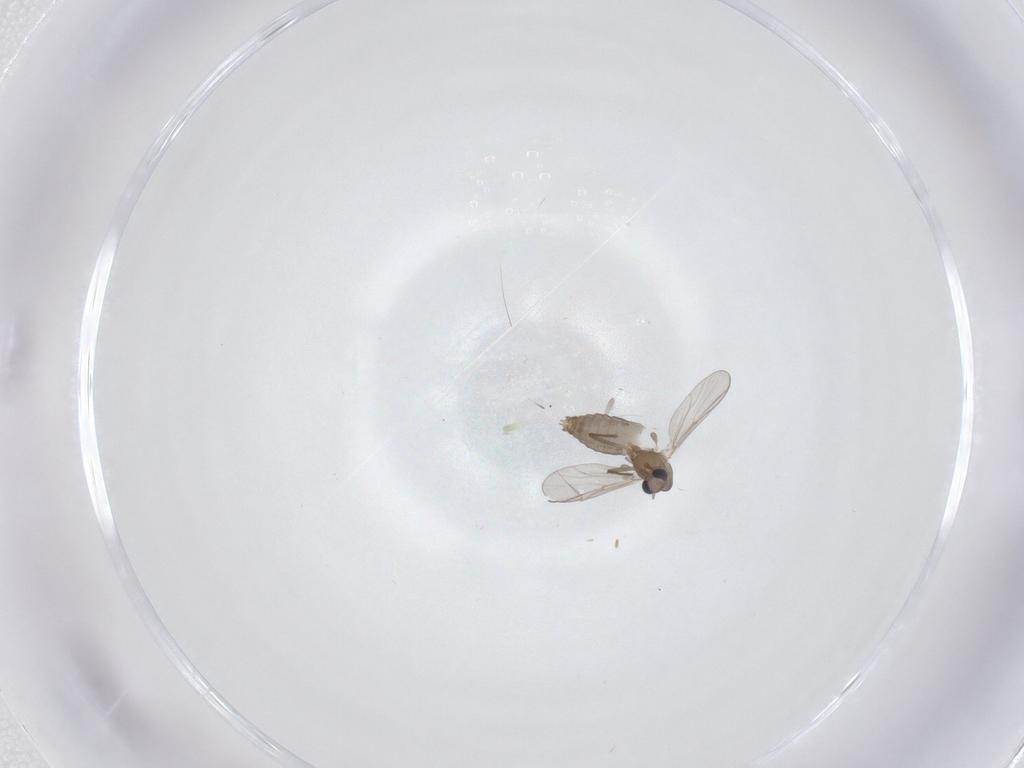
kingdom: Animalia
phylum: Arthropoda
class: Insecta
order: Diptera
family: Chironomidae
